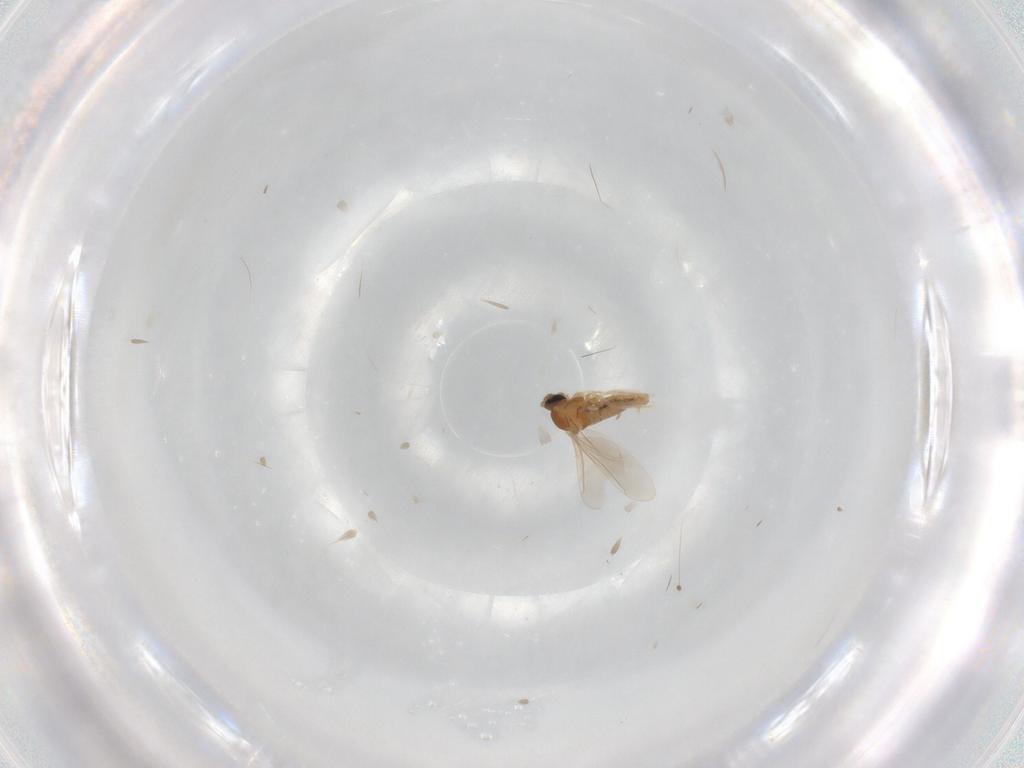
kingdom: Animalia
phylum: Arthropoda
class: Insecta
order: Diptera
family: Cecidomyiidae
